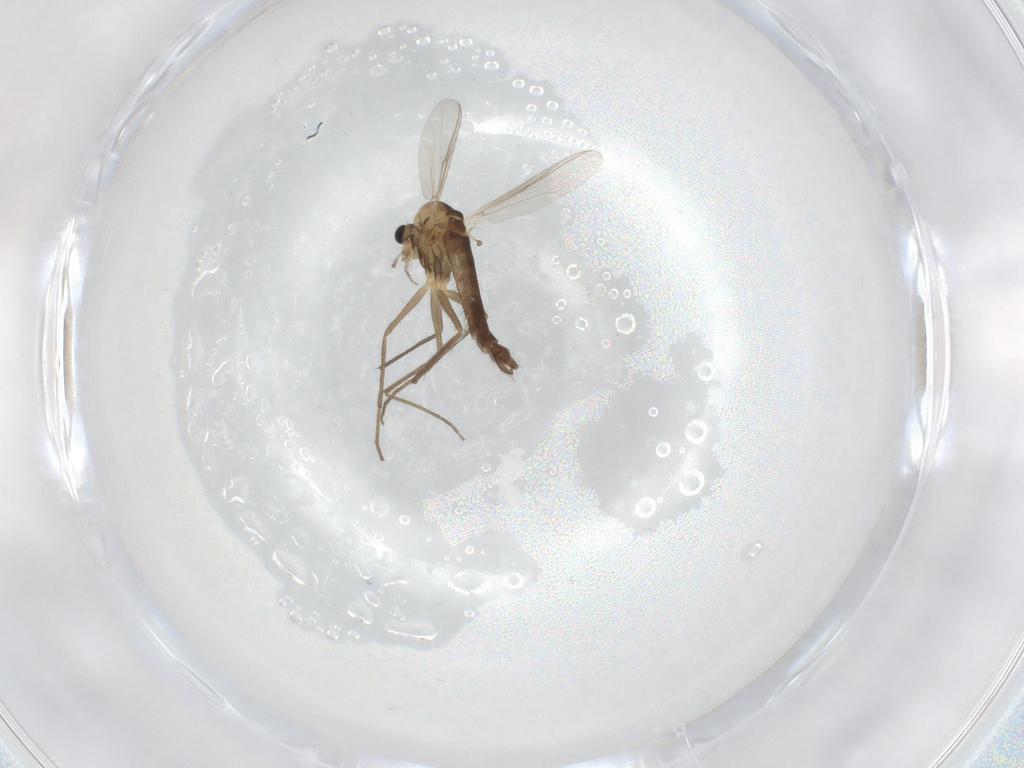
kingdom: Animalia
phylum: Arthropoda
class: Insecta
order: Diptera
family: Chironomidae
